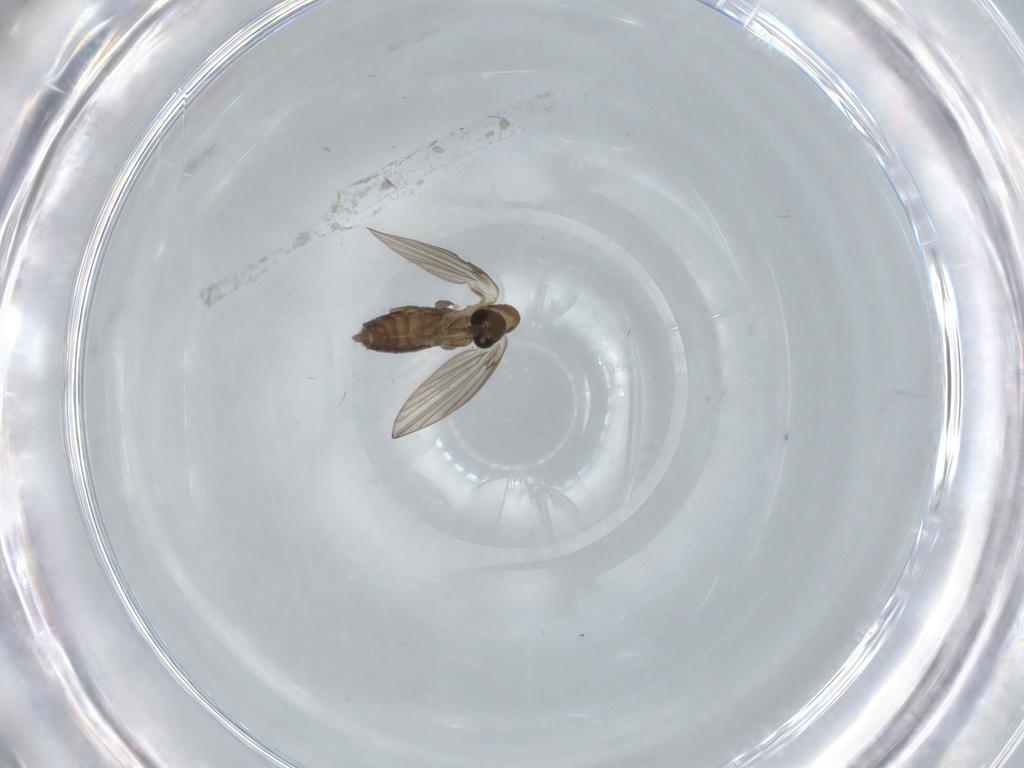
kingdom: Animalia
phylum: Arthropoda
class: Insecta
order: Diptera
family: Psychodidae
